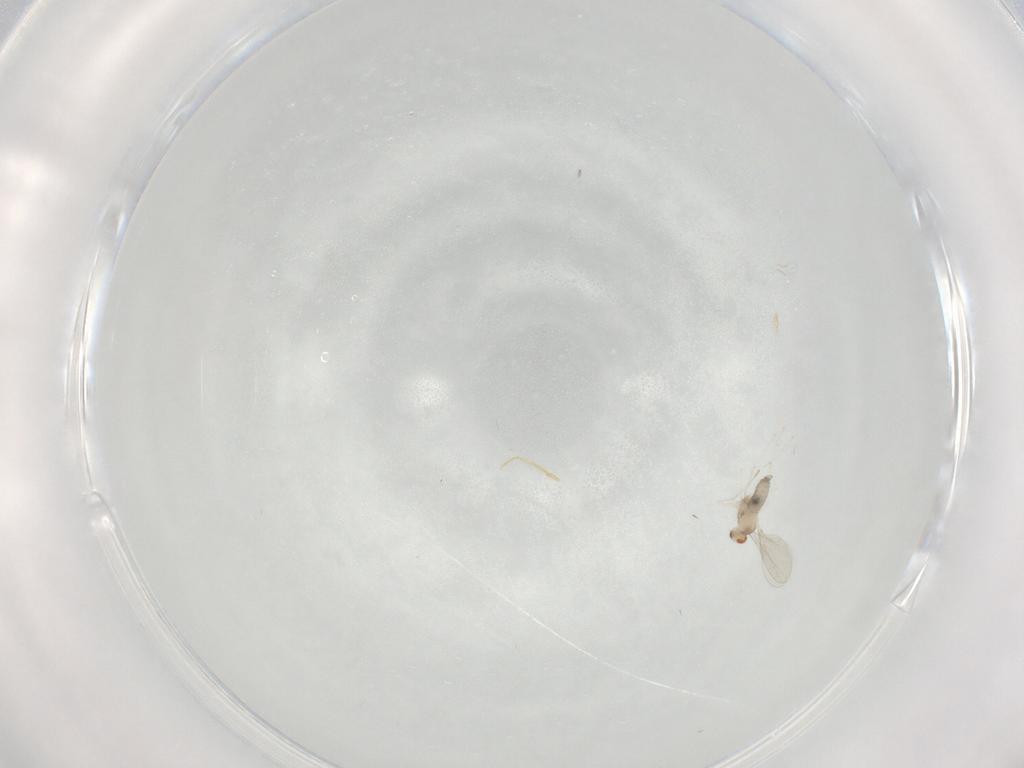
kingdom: Animalia
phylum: Arthropoda
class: Insecta
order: Diptera
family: Cecidomyiidae
